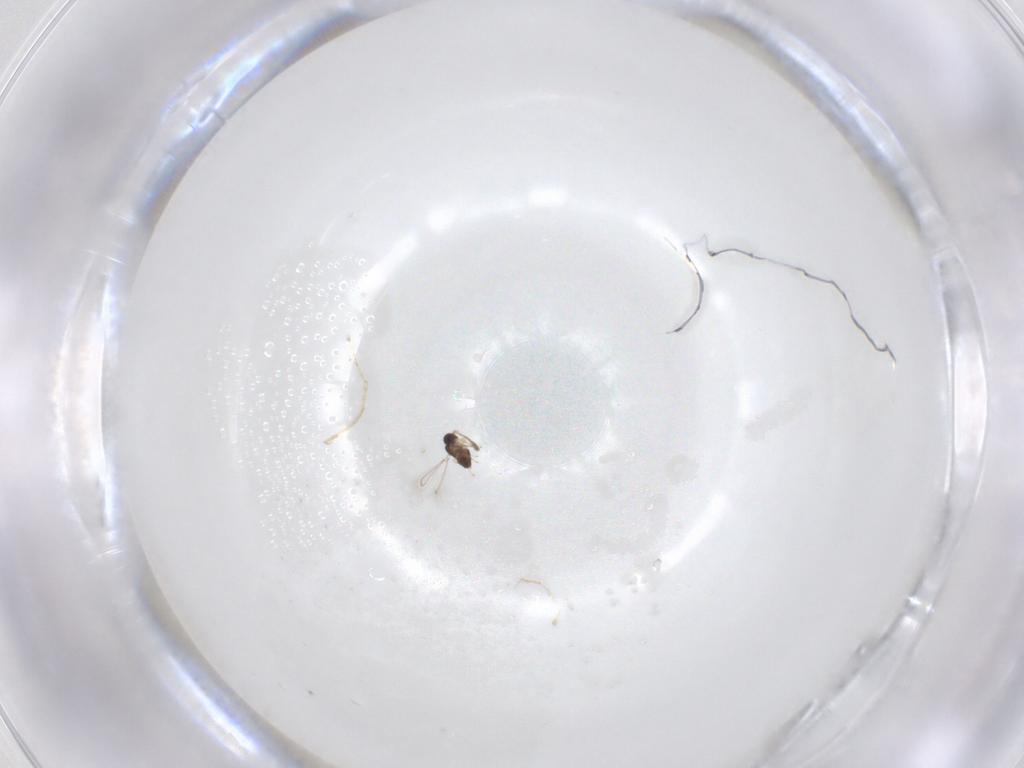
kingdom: Animalia
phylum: Arthropoda
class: Insecta
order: Hymenoptera
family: Mymaridae
